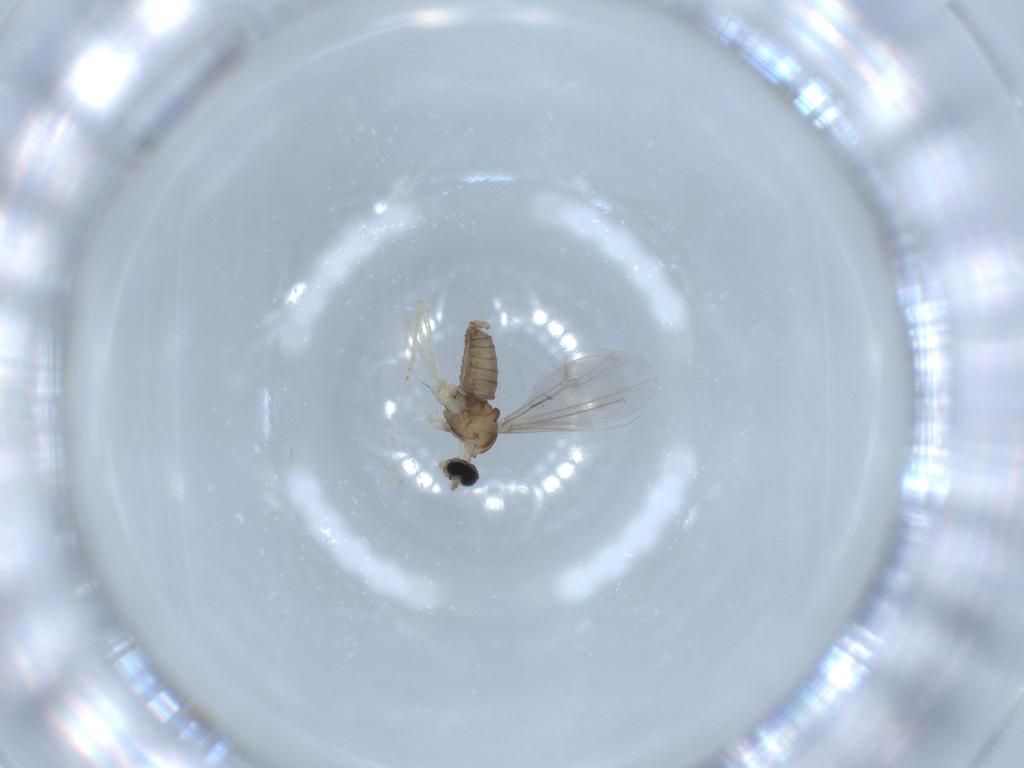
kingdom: Animalia
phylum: Arthropoda
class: Insecta
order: Diptera
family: Cecidomyiidae
